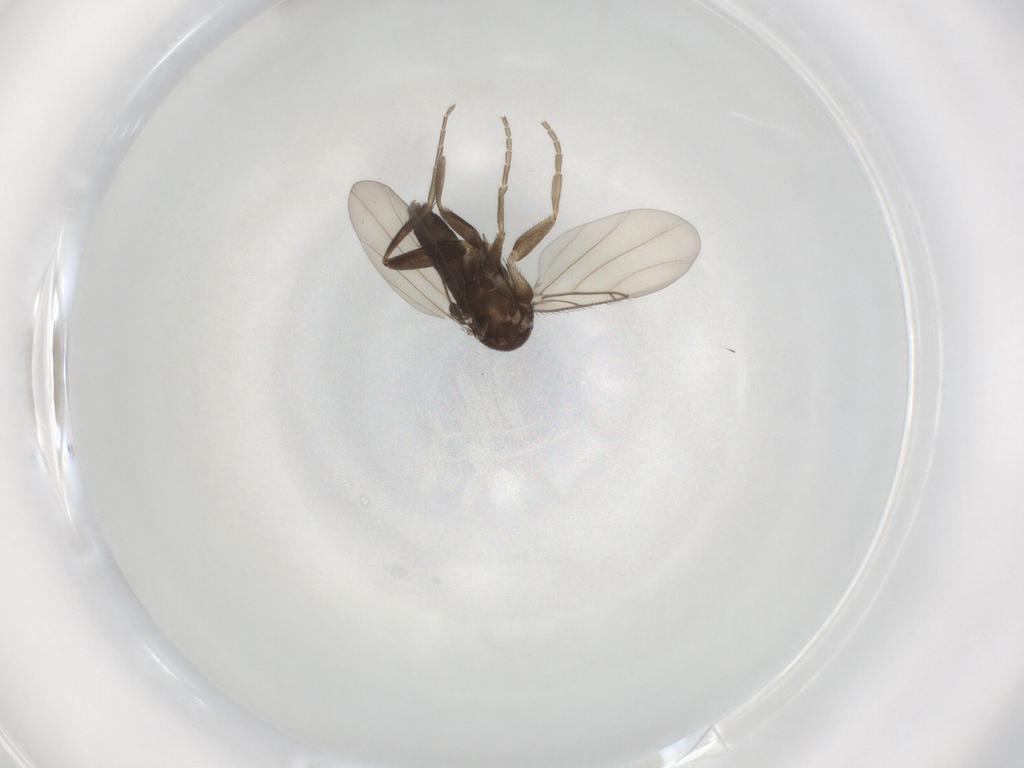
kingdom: Animalia
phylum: Arthropoda
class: Insecta
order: Diptera
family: Phoridae
